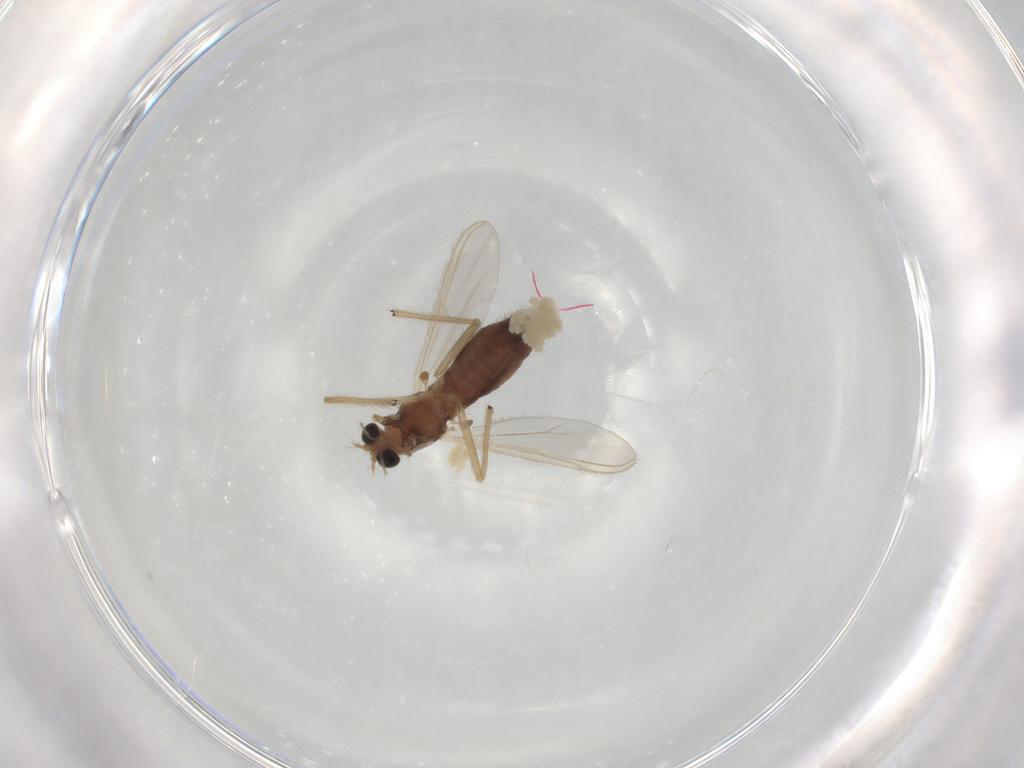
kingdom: Animalia
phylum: Arthropoda
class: Insecta
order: Diptera
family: Chironomidae
